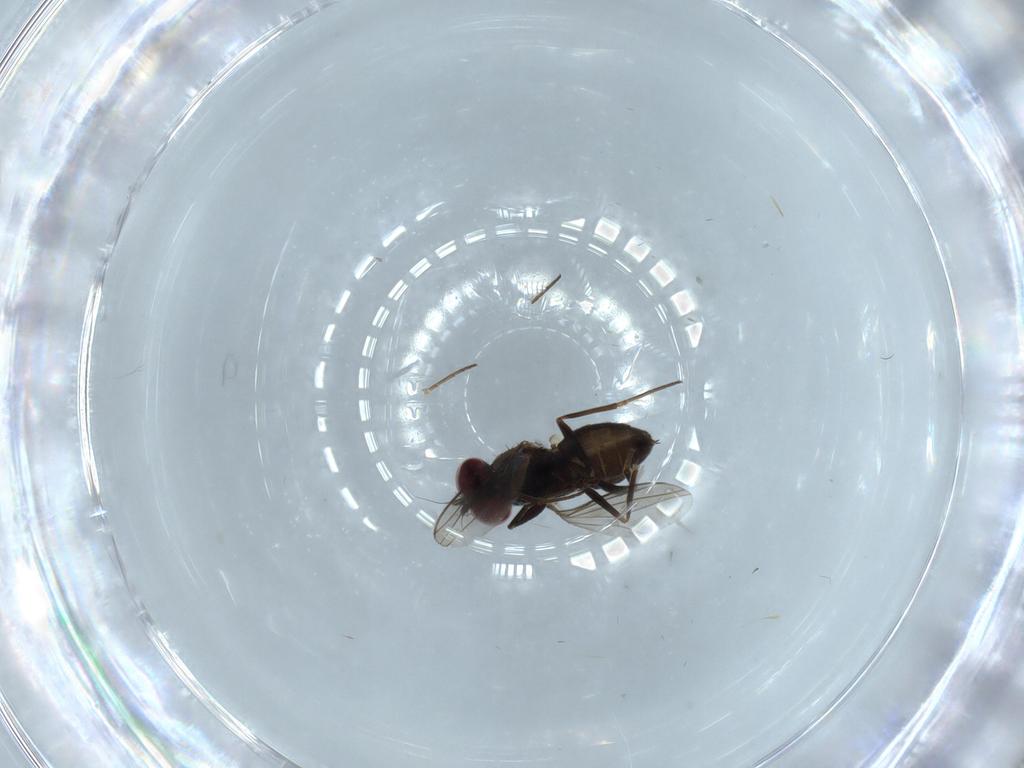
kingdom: Animalia
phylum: Arthropoda
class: Insecta
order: Diptera
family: Dolichopodidae
